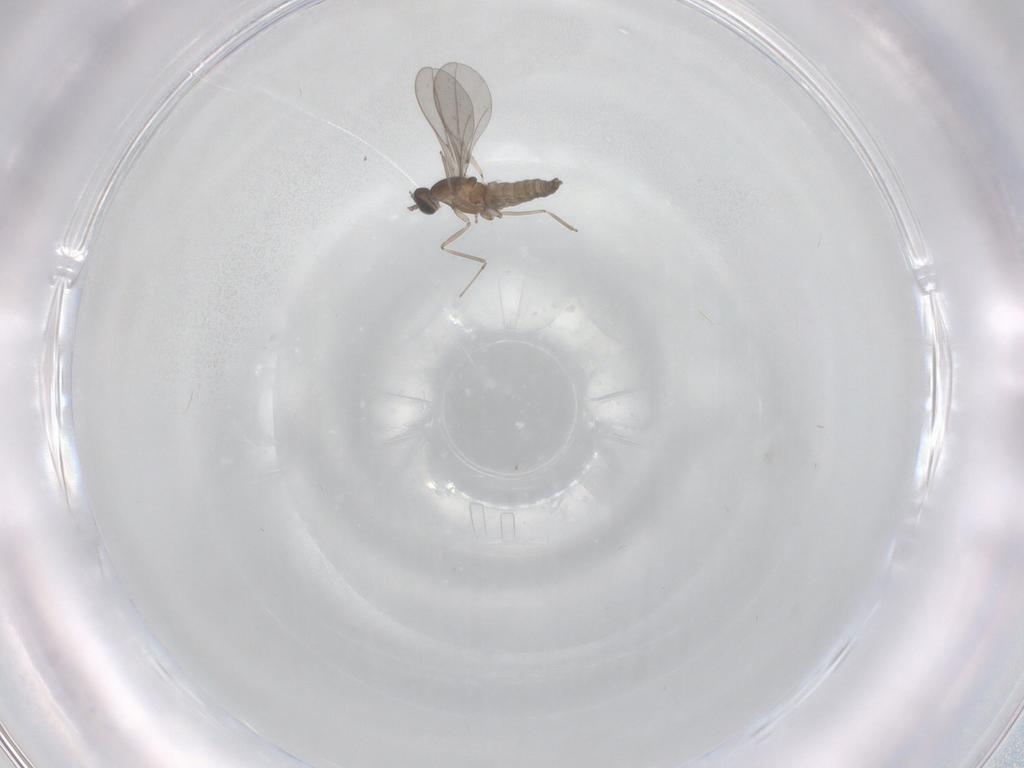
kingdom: Animalia
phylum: Arthropoda
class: Insecta
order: Diptera
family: Cecidomyiidae
